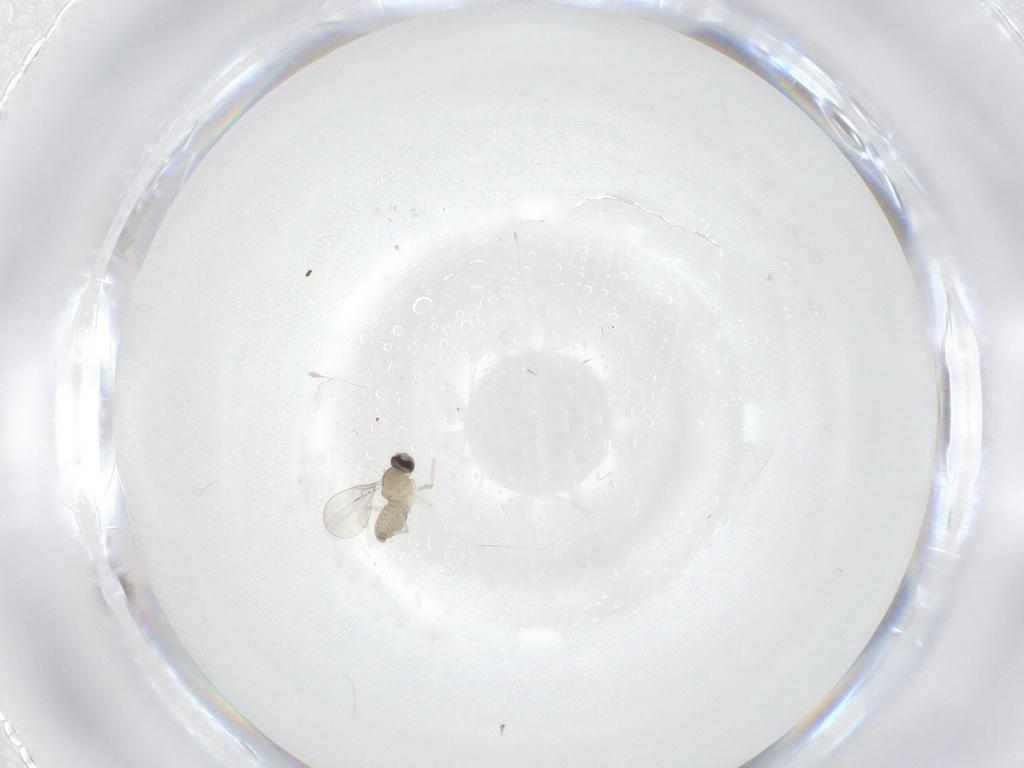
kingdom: Animalia
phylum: Arthropoda
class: Insecta
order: Diptera
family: Cecidomyiidae
